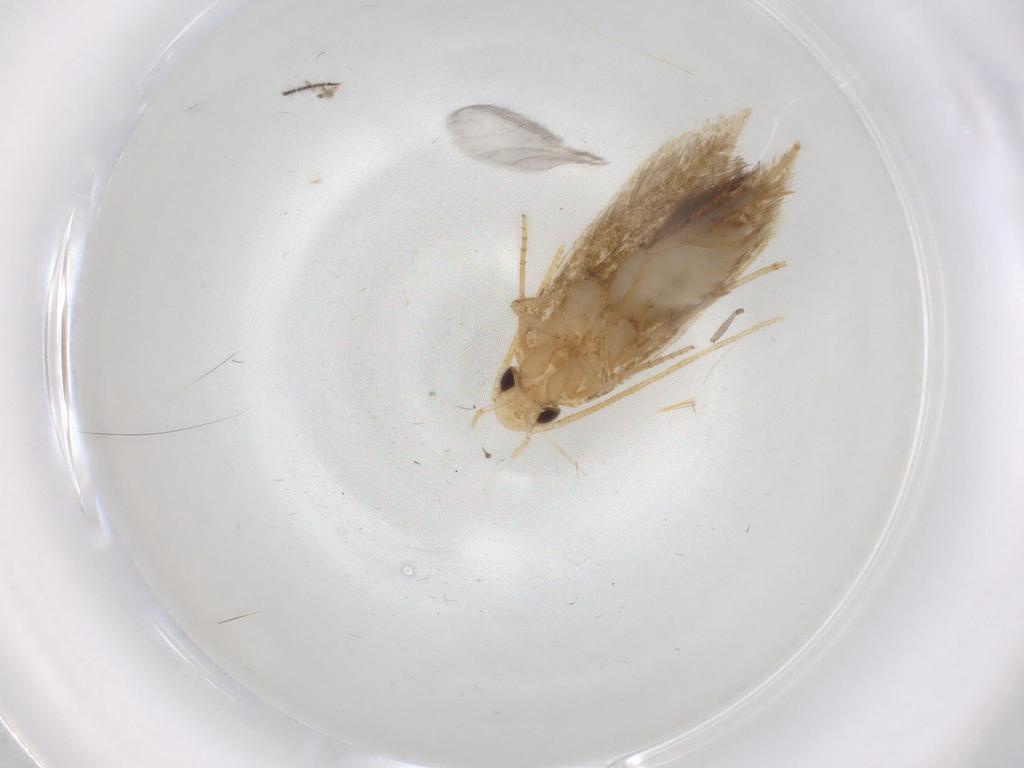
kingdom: Animalia
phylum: Arthropoda
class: Insecta
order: Lepidoptera
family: Tineidae
